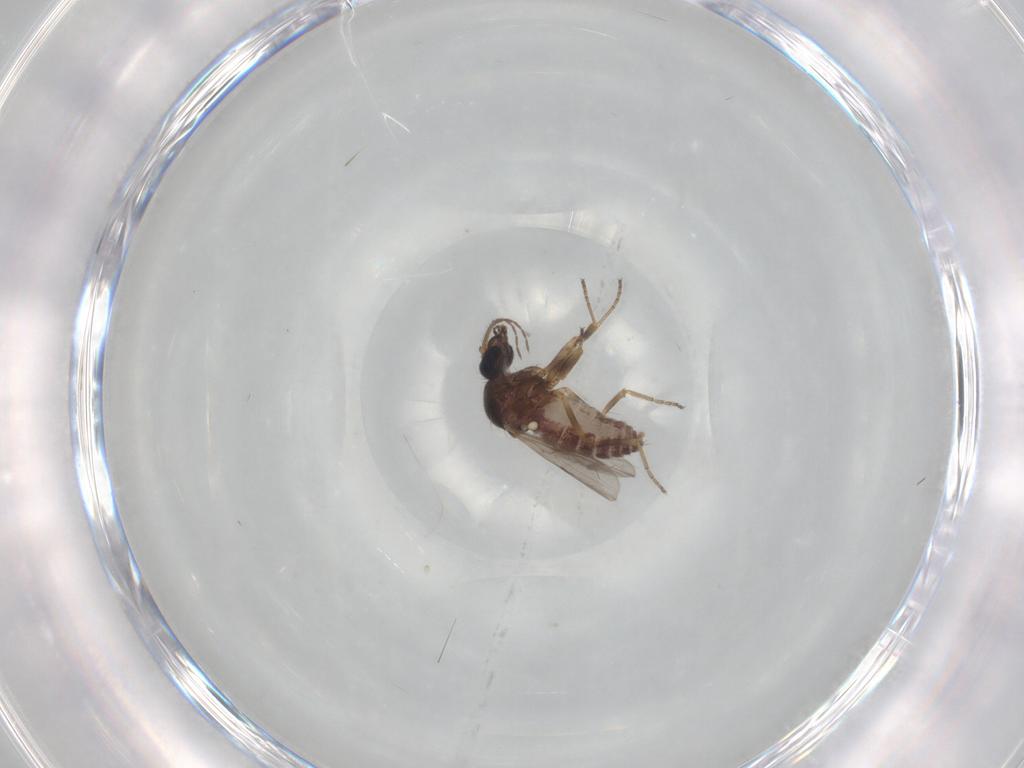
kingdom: Animalia
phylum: Arthropoda
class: Insecta
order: Diptera
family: Ceratopogonidae
